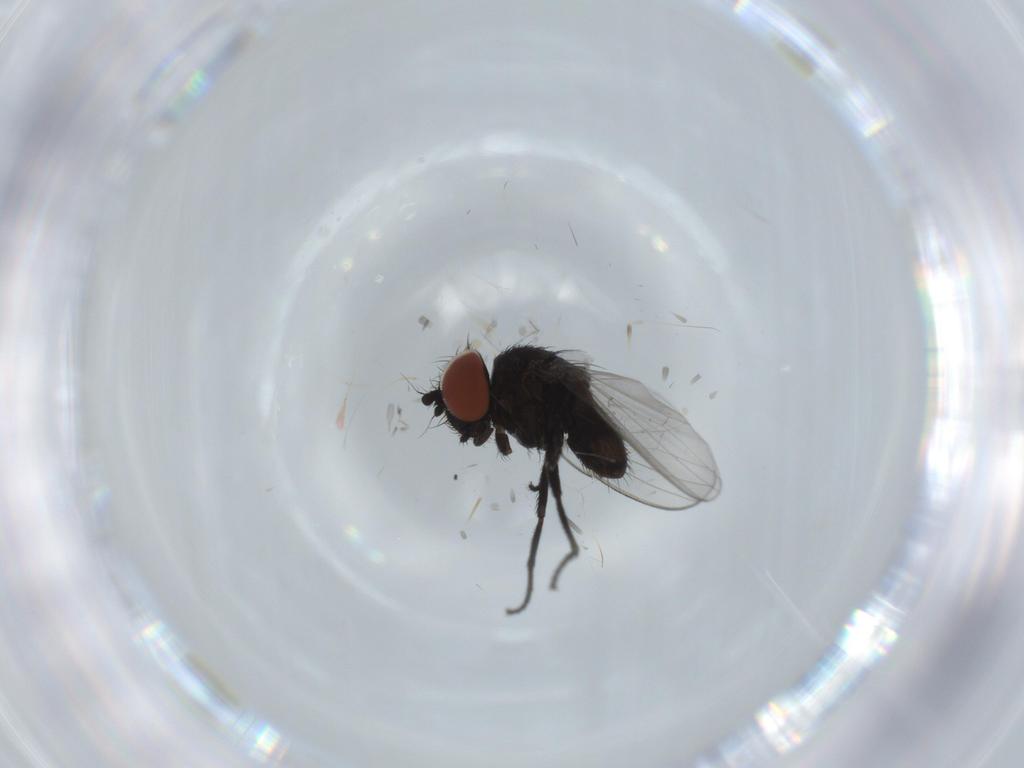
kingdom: Animalia
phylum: Arthropoda
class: Insecta
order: Diptera
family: Milichiidae
